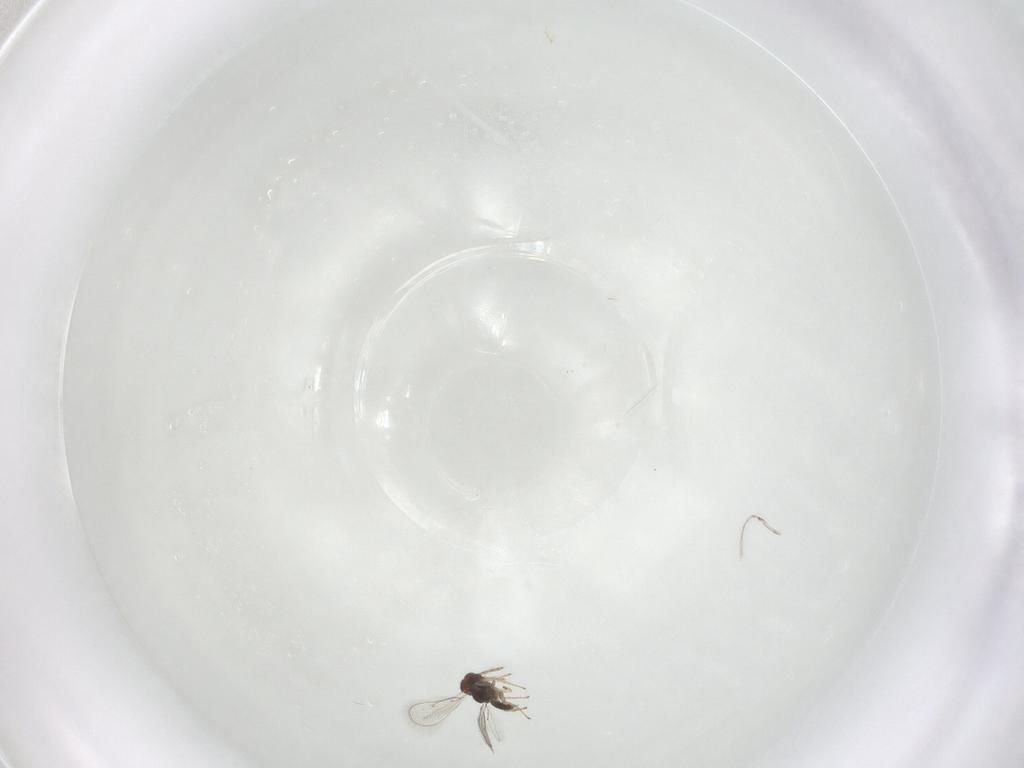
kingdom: Animalia
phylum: Arthropoda
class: Insecta
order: Hymenoptera
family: Eulophidae
